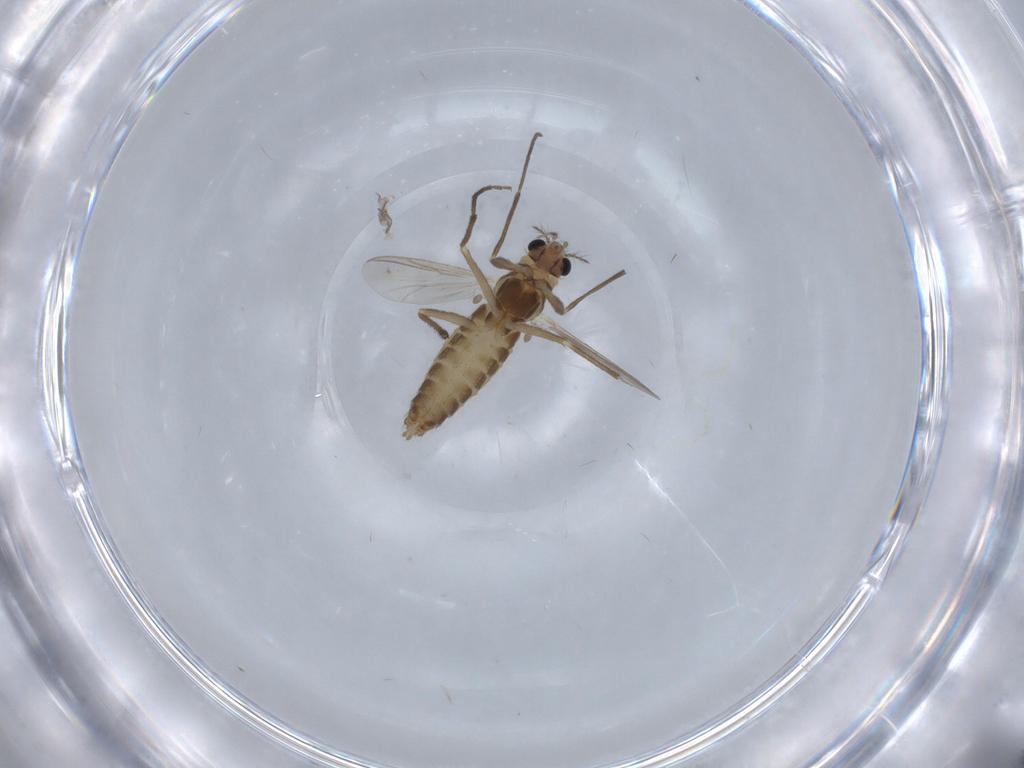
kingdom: Animalia
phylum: Arthropoda
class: Insecta
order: Diptera
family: Chironomidae
